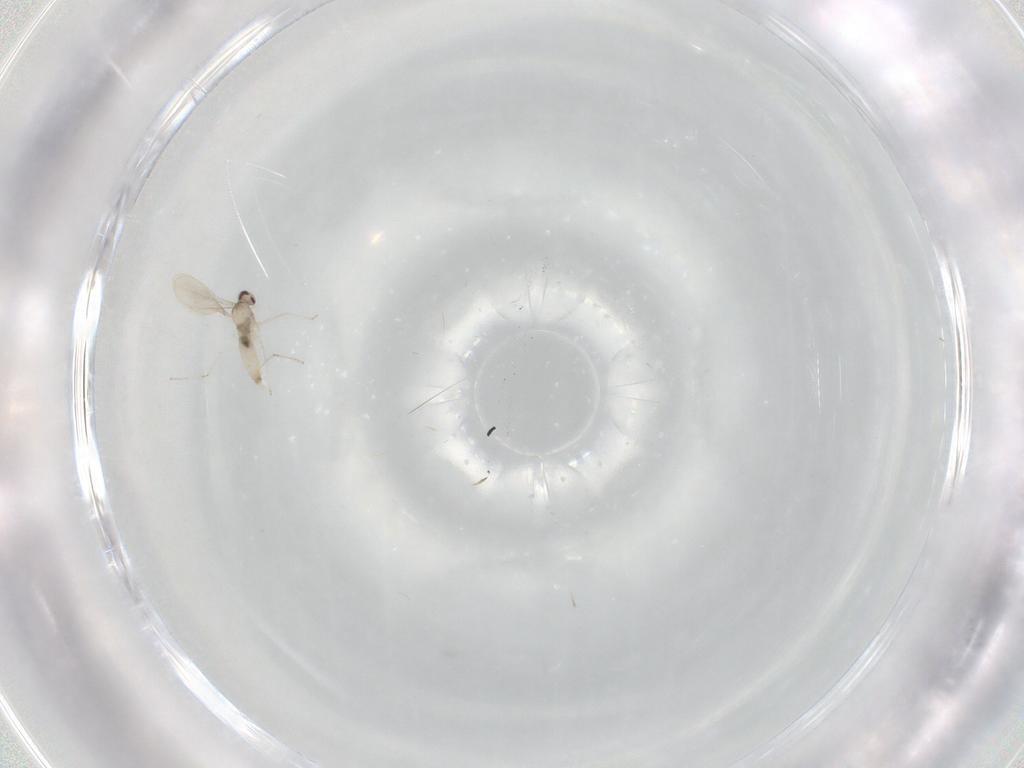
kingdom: Animalia
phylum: Arthropoda
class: Insecta
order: Diptera
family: Cecidomyiidae
